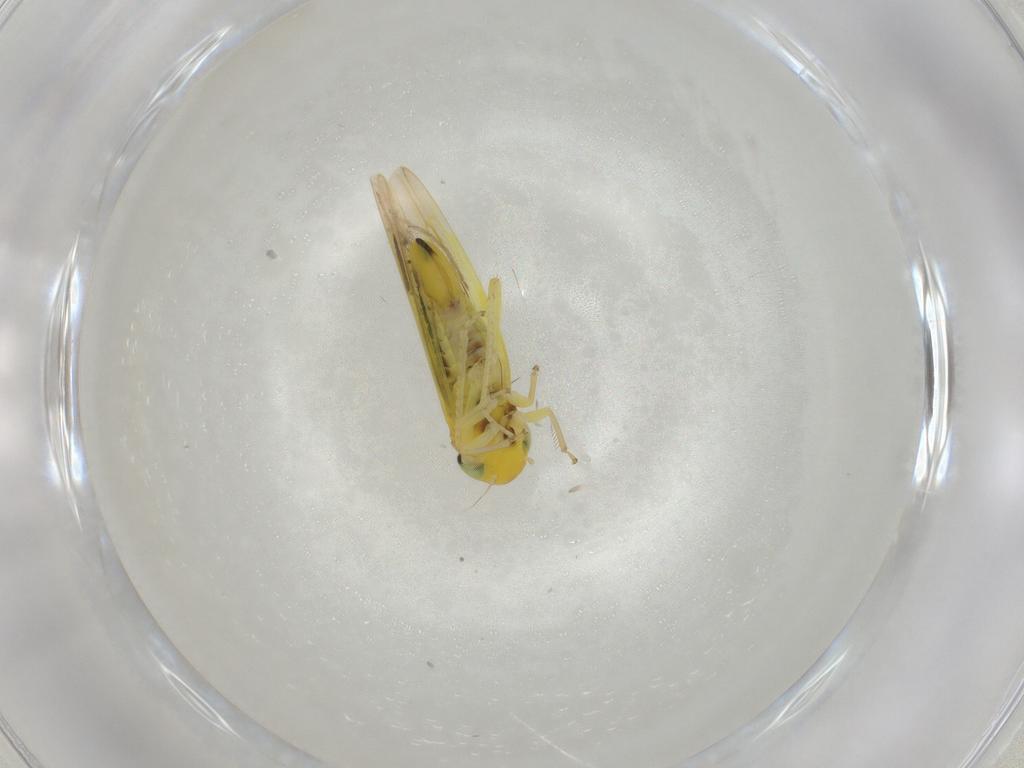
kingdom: Animalia
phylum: Arthropoda
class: Insecta
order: Hemiptera
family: Cicadellidae
